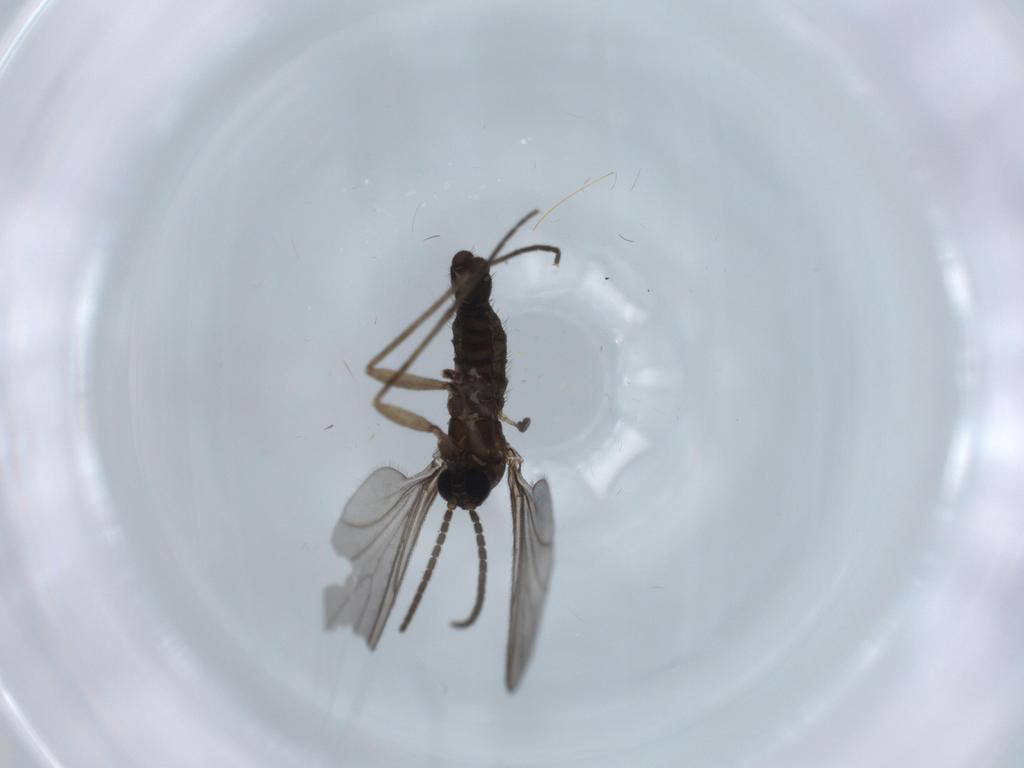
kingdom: Animalia
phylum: Arthropoda
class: Insecta
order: Diptera
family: Sciaridae
